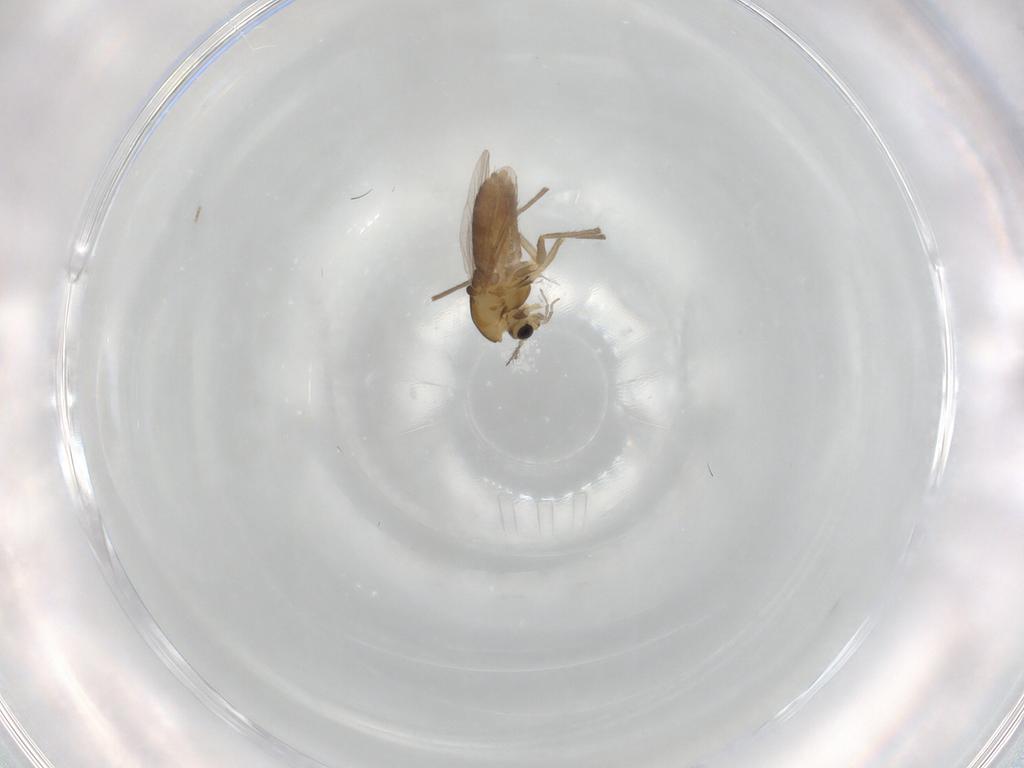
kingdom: Animalia
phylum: Arthropoda
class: Insecta
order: Diptera
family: Chironomidae
